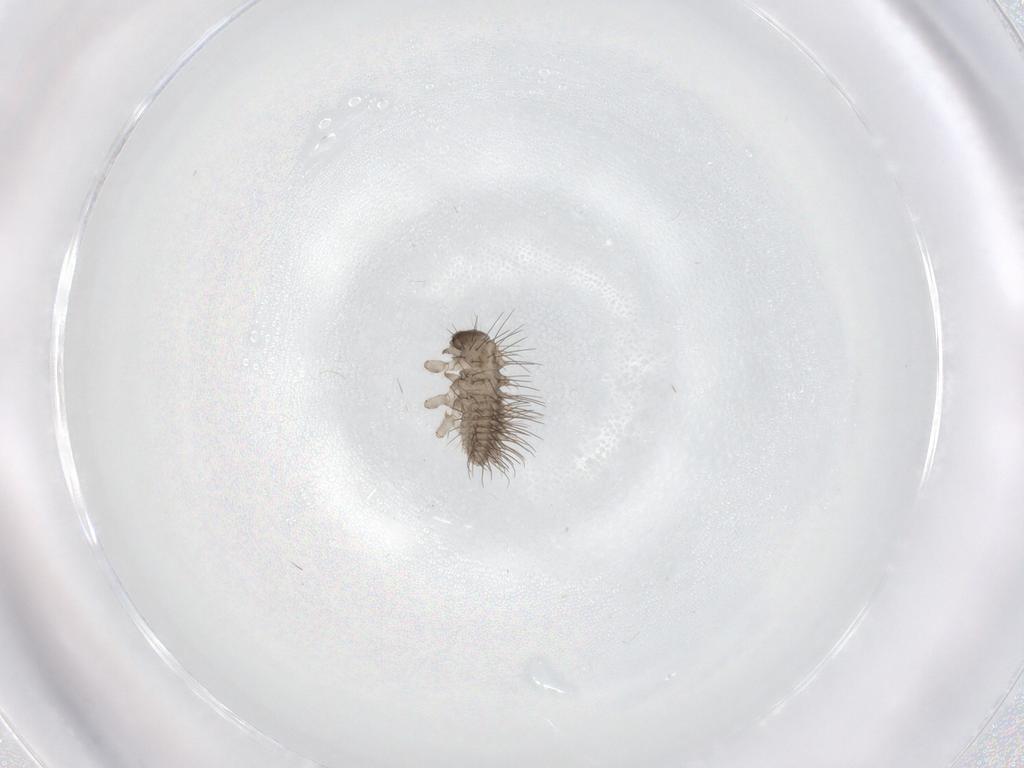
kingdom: Animalia
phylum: Arthropoda
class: Insecta
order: Coleoptera
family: Coccinellidae
